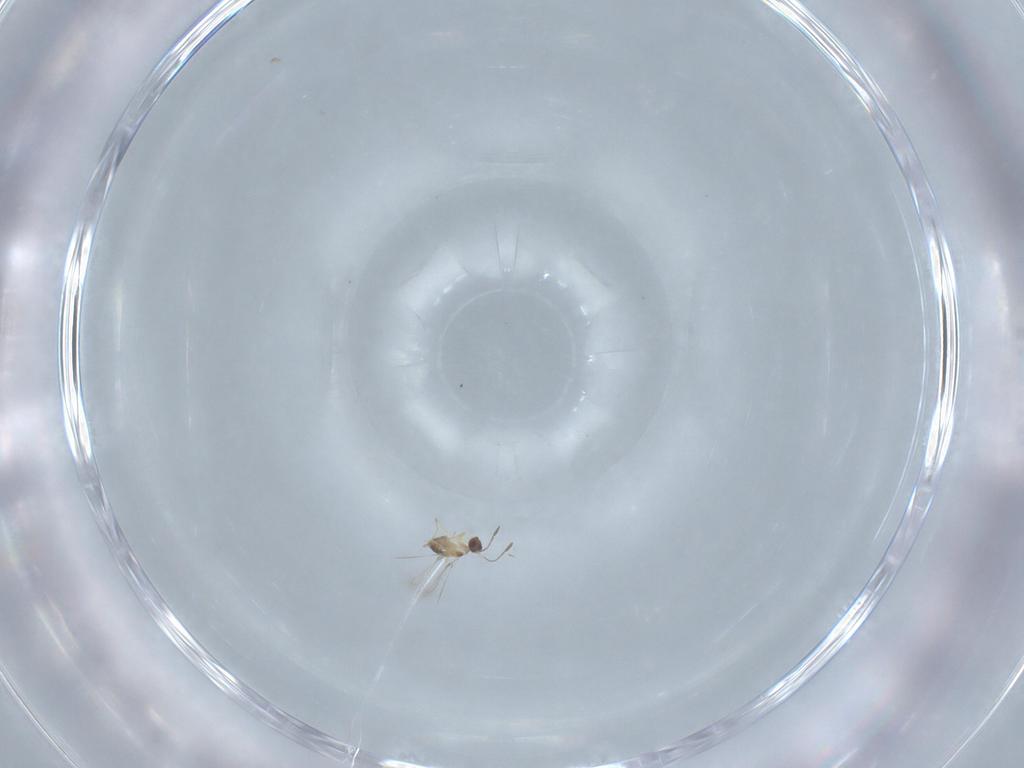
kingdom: Animalia
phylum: Arthropoda
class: Insecta
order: Hymenoptera
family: Mymaridae
